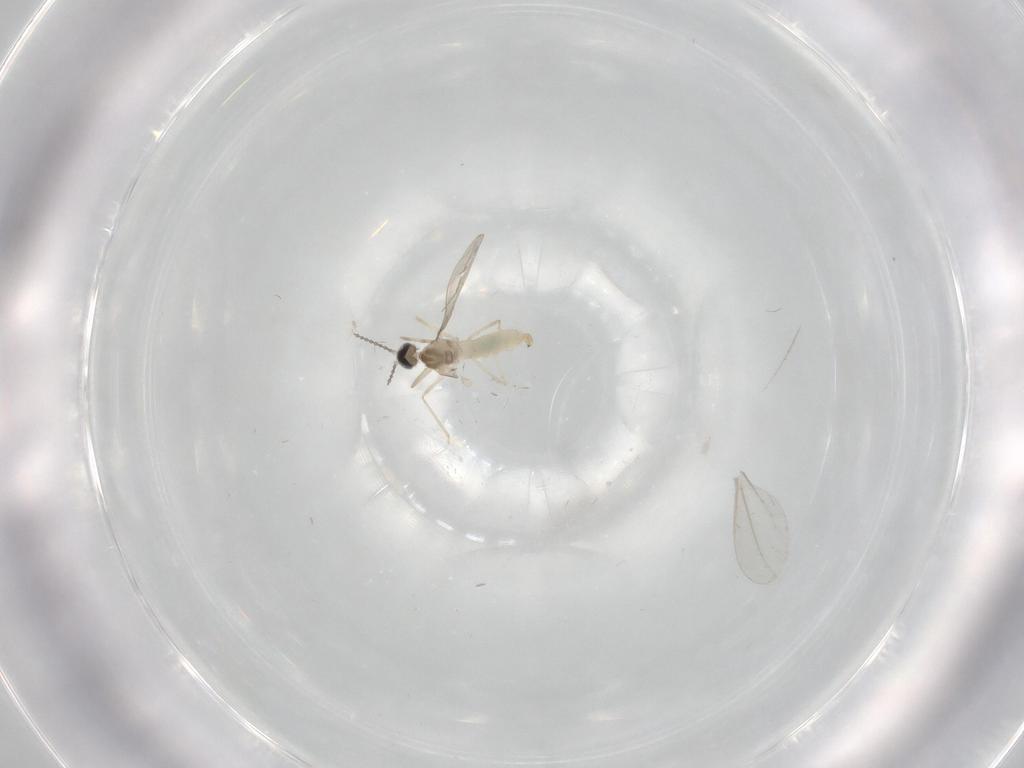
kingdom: Animalia
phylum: Arthropoda
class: Insecta
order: Diptera
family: Cecidomyiidae
